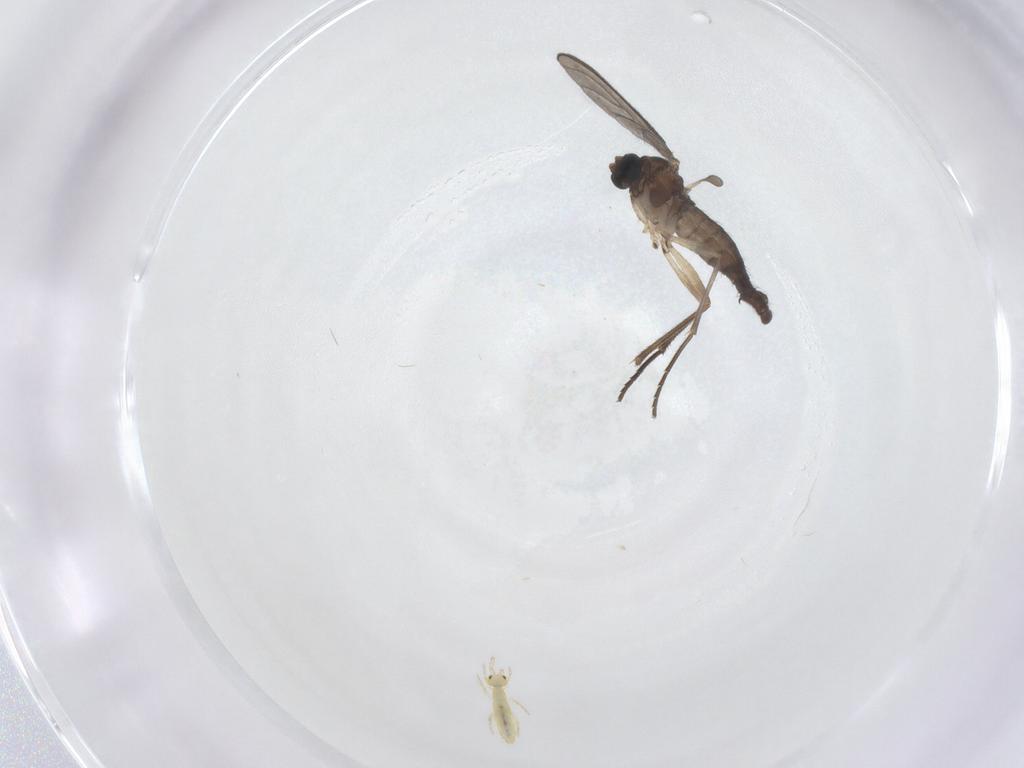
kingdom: Animalia
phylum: Arthropoda
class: Insecta
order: Diptera
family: Sciaridae
